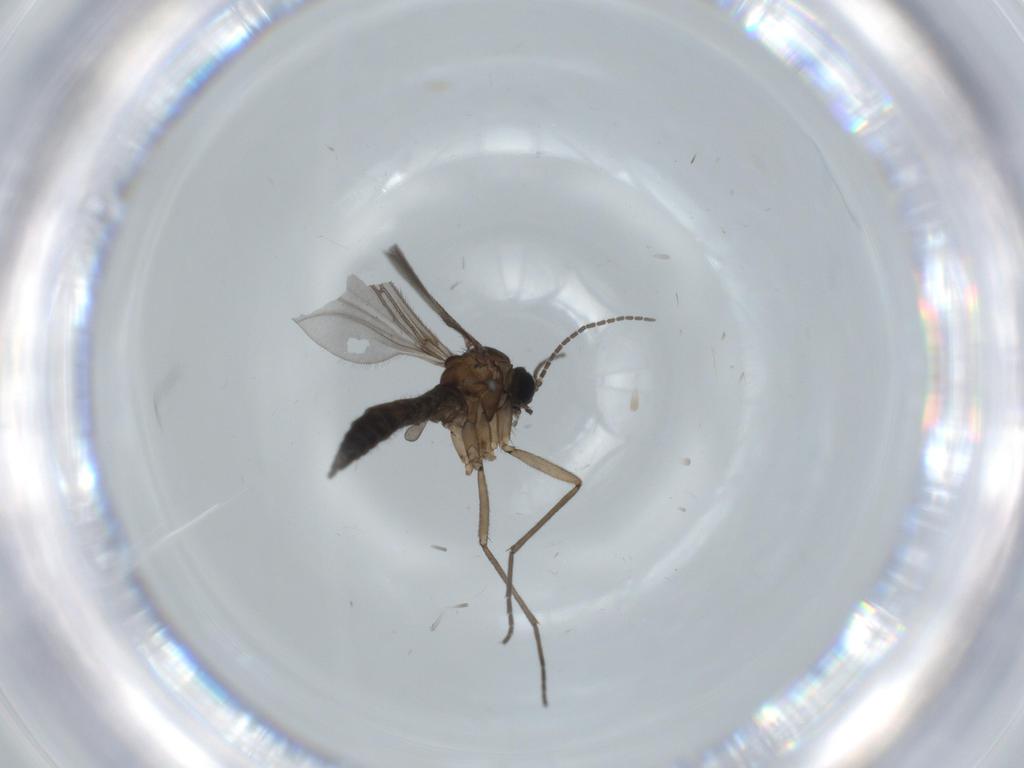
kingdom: Animalia
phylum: Arthropoda
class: Insecta
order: Diptera
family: Sciaridae
